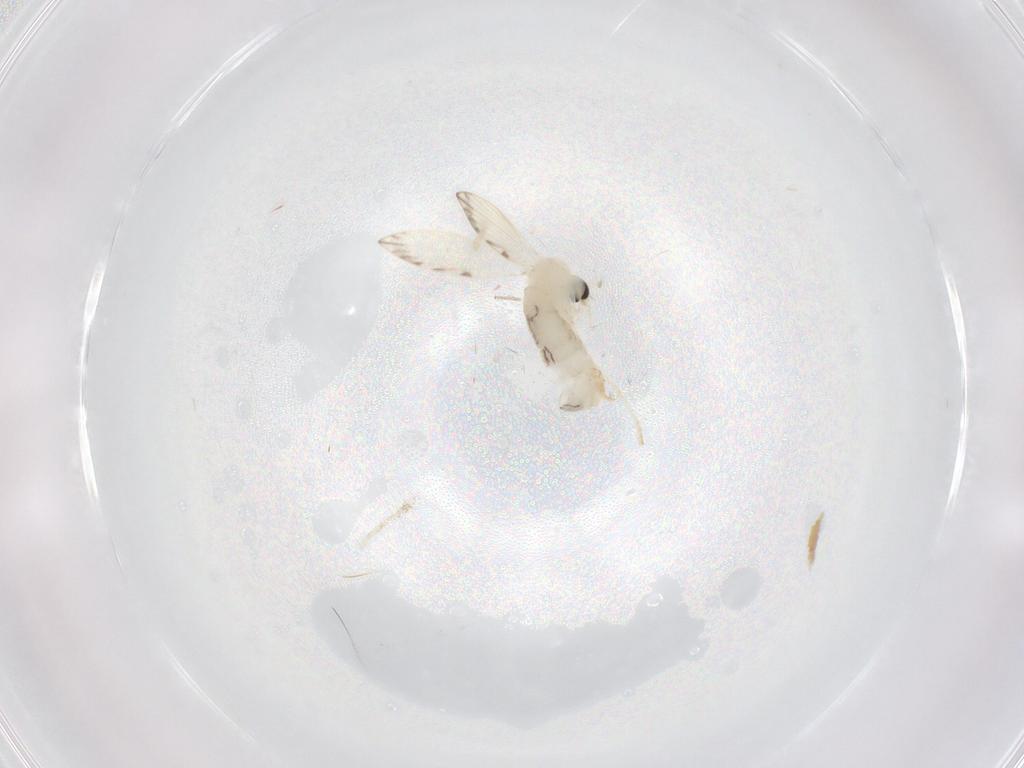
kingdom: Animalia
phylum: Arthropoda
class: Insecta
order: Diptera
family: Psychodidae
